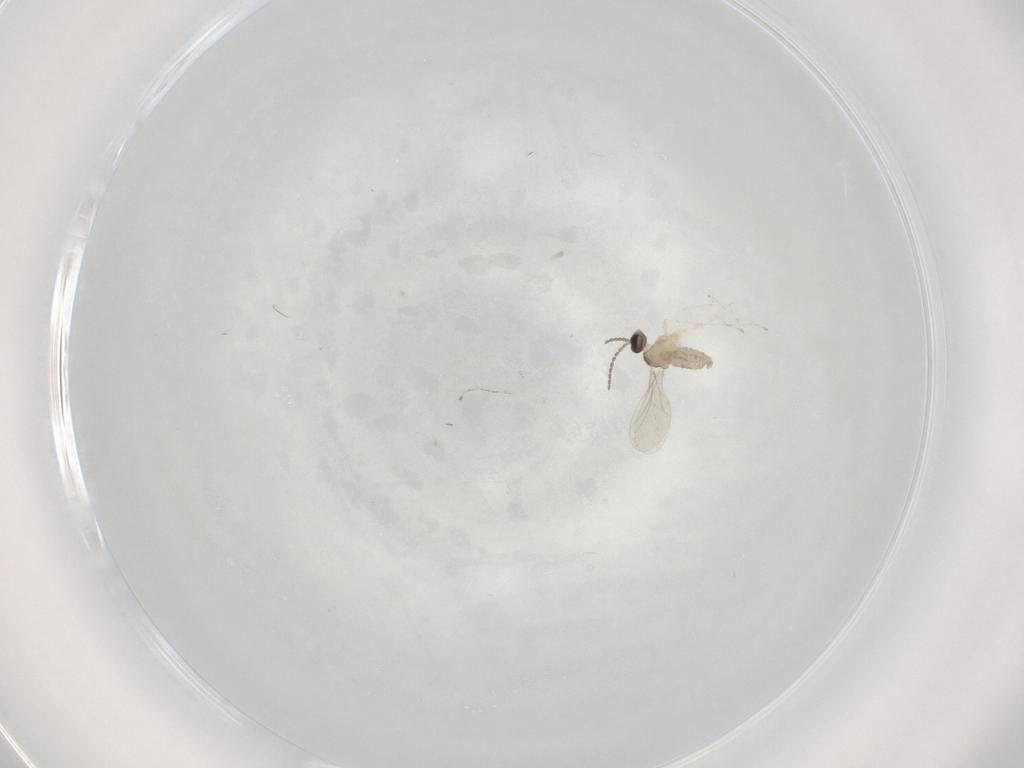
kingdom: Animalia
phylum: Arthropoda
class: Insecta
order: Diptera
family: Cecidomyiidae
